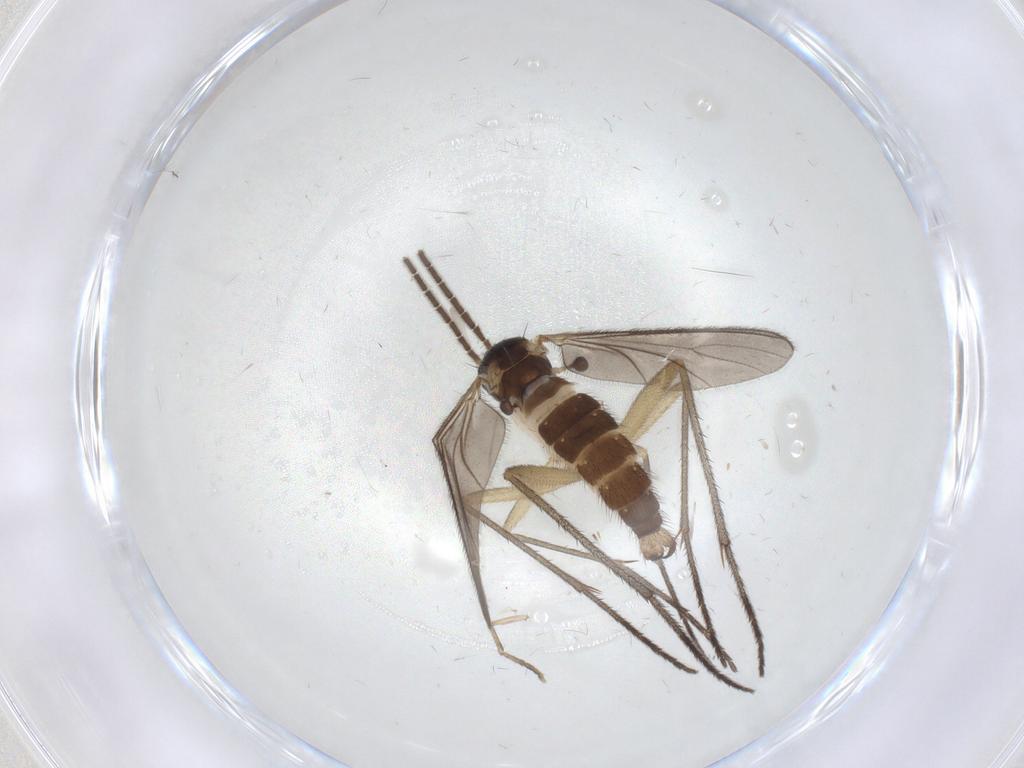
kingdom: Animalia
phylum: Arthropoda
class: Insecta
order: Diptera
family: Sciaridae
